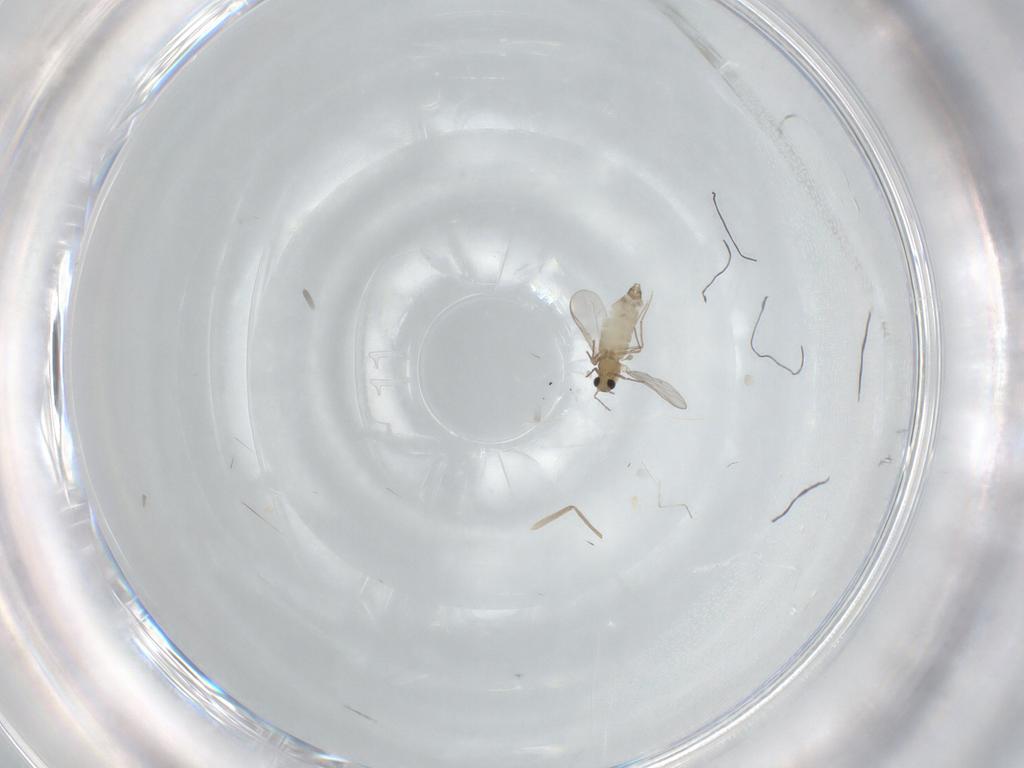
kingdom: Animalia
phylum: Arthropoda
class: Insecta
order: Diptera
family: Chironomidae
